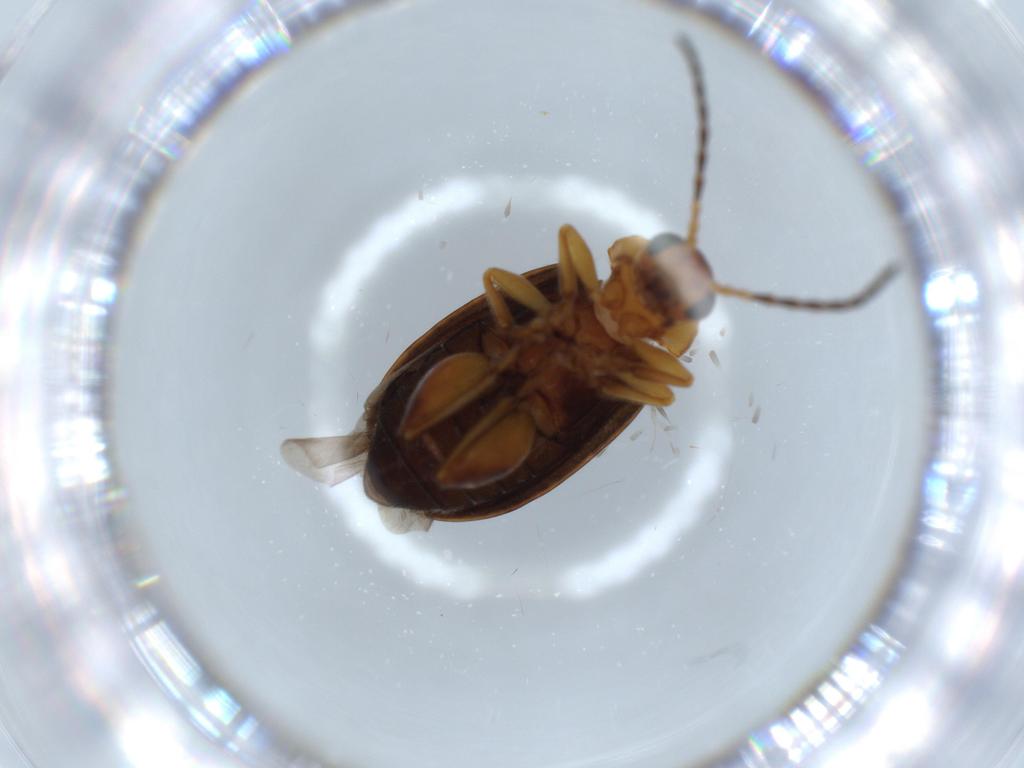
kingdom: Animalia
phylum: Arthropoda
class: Insecta
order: Coleoptera
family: Chrysomelidae
